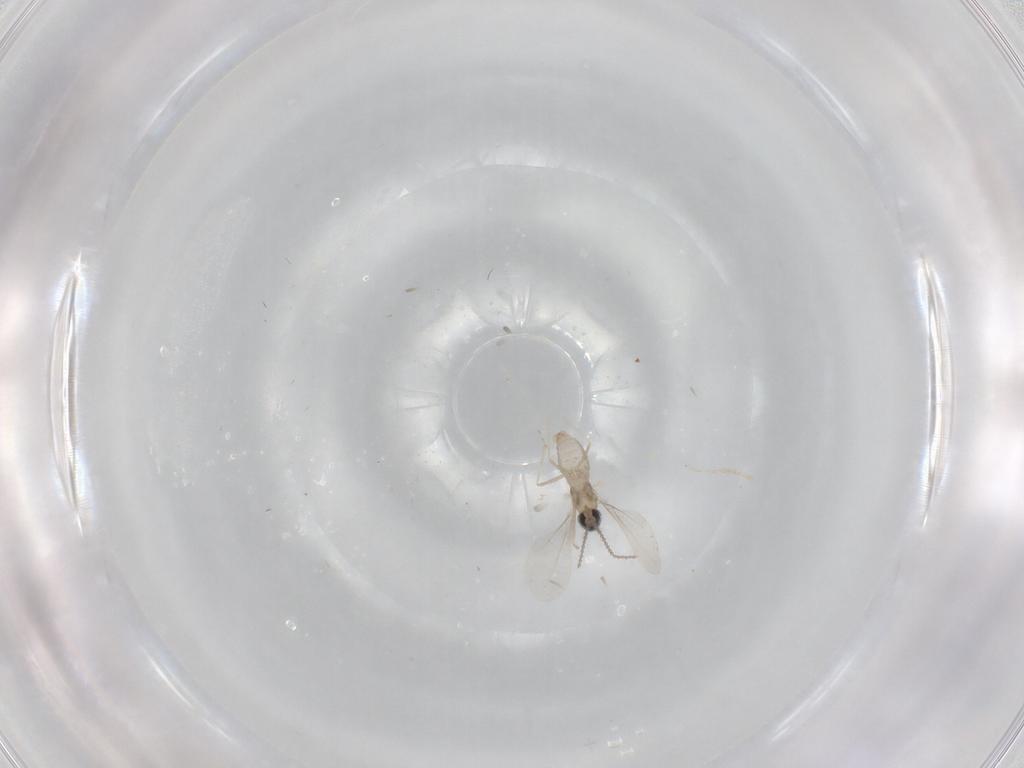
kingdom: Animalia
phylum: Arthropoda
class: Insecta
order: Diptera
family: Cecidomyiidae
